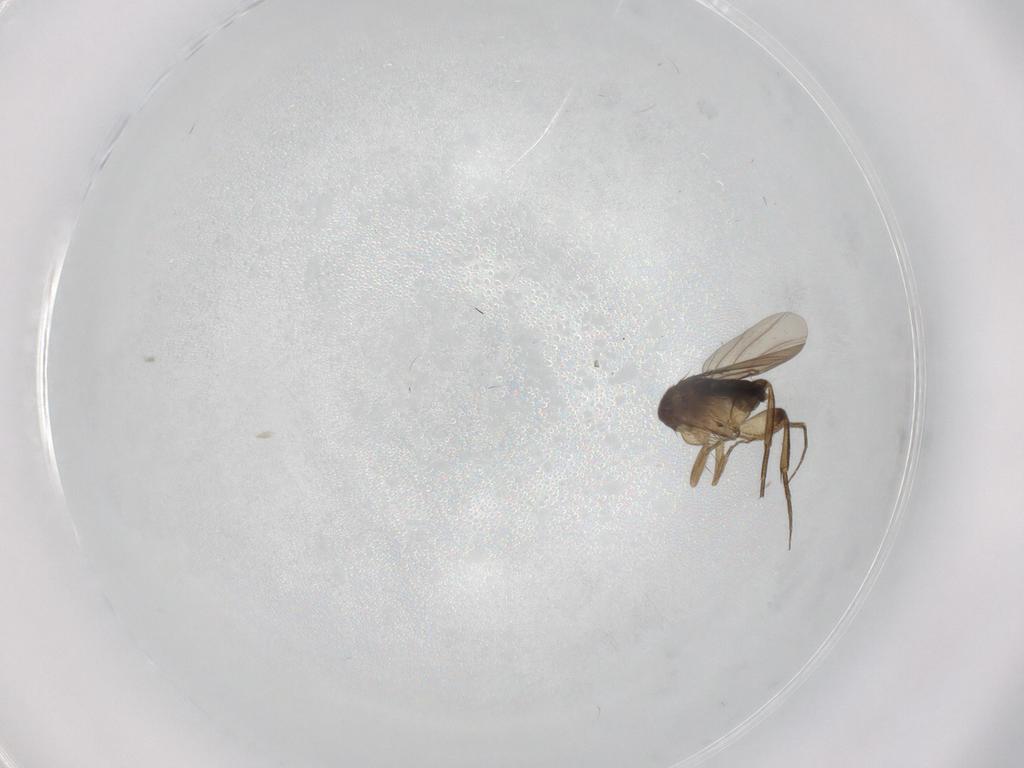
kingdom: Animalia
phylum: Arthropoda
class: Insecta
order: Diptera
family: Phoridae
